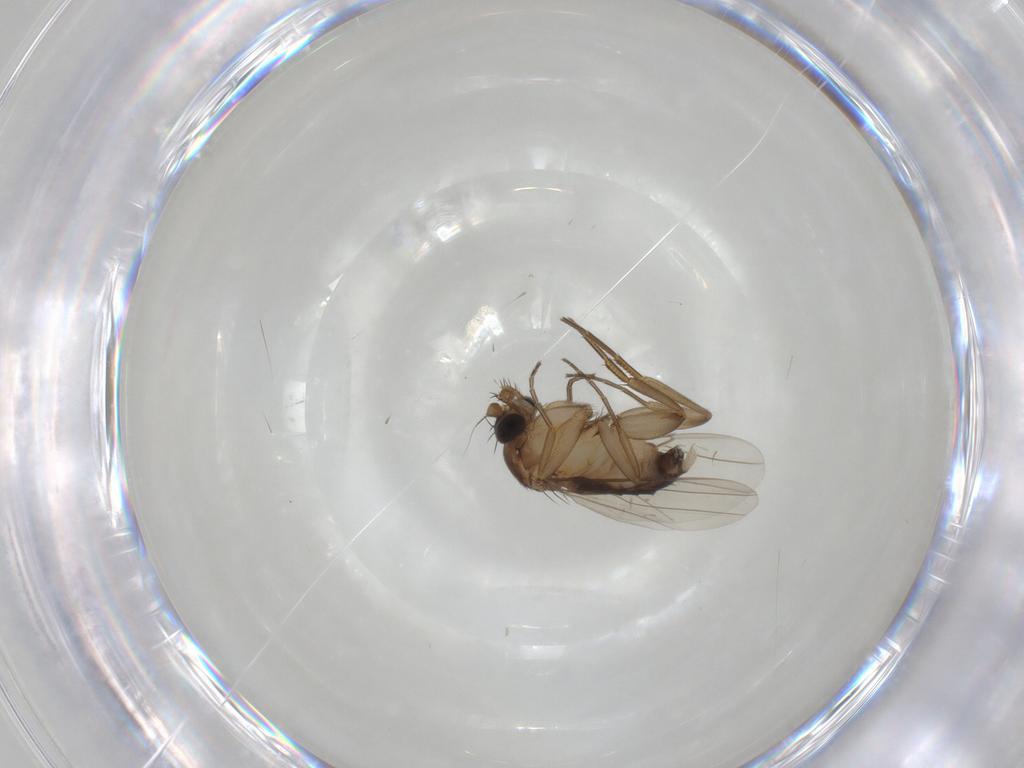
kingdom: Animalia
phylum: Arthropoda
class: Insecta
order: Diptera
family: Phoridae
